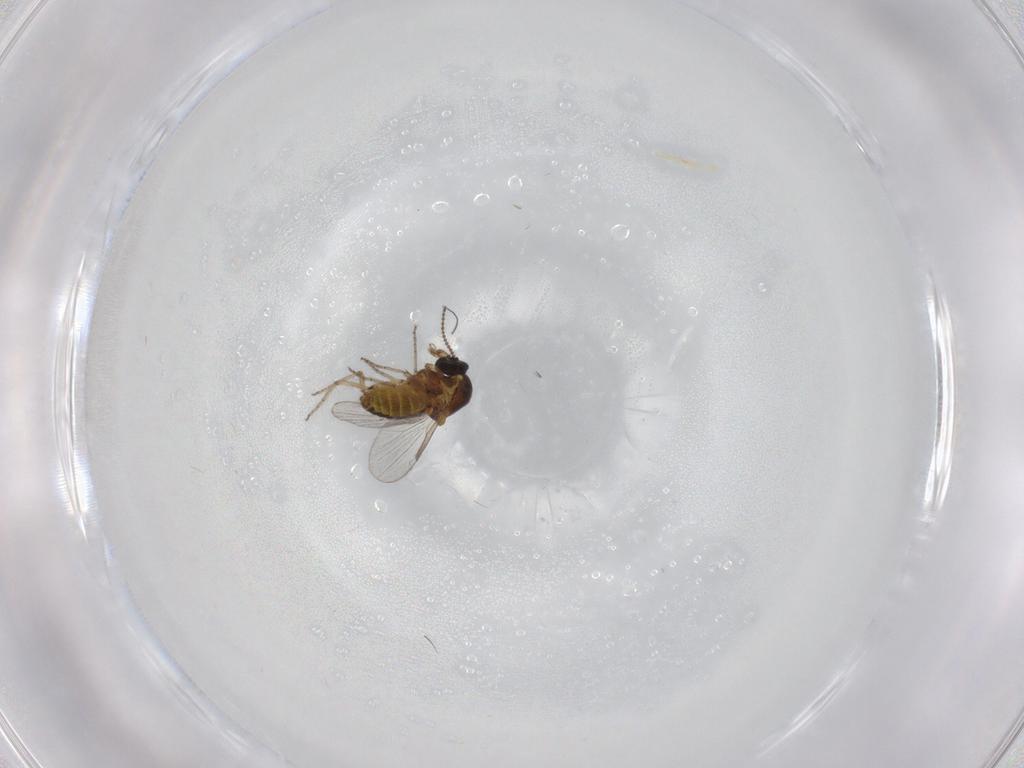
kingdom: Animalia
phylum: Arthropoda
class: Insecta
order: Diptera
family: Ceratopogonidae
